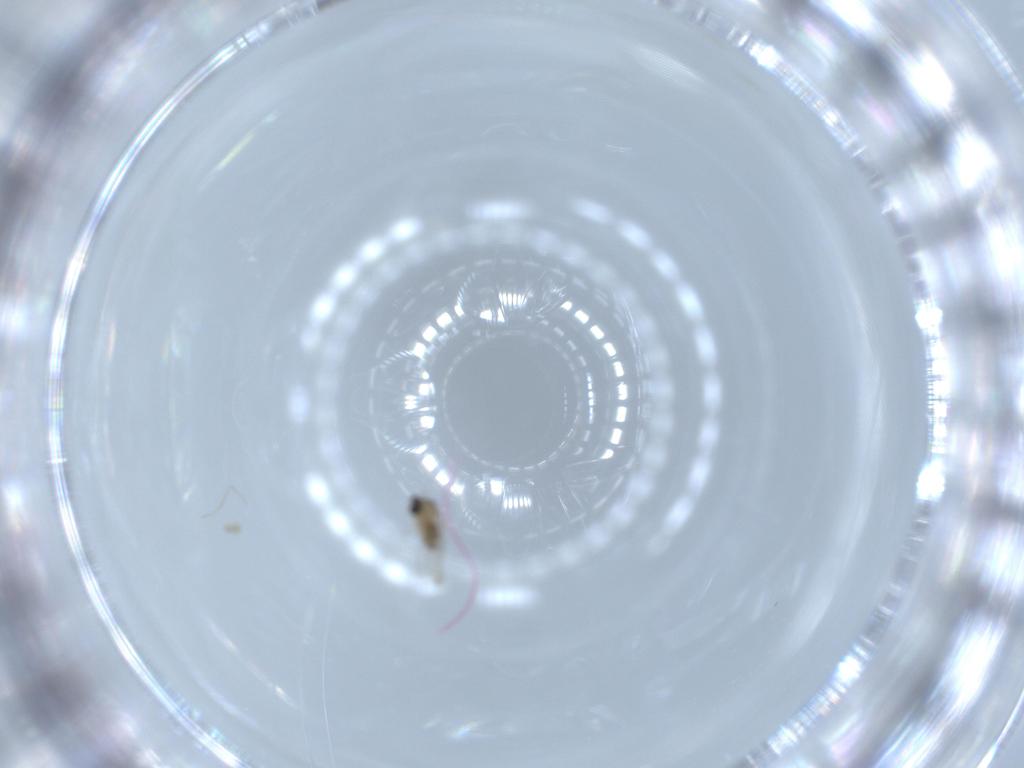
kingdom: Animalia
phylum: Arthropoda
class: Insecta
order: Diptera
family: Cecidomyiidae
